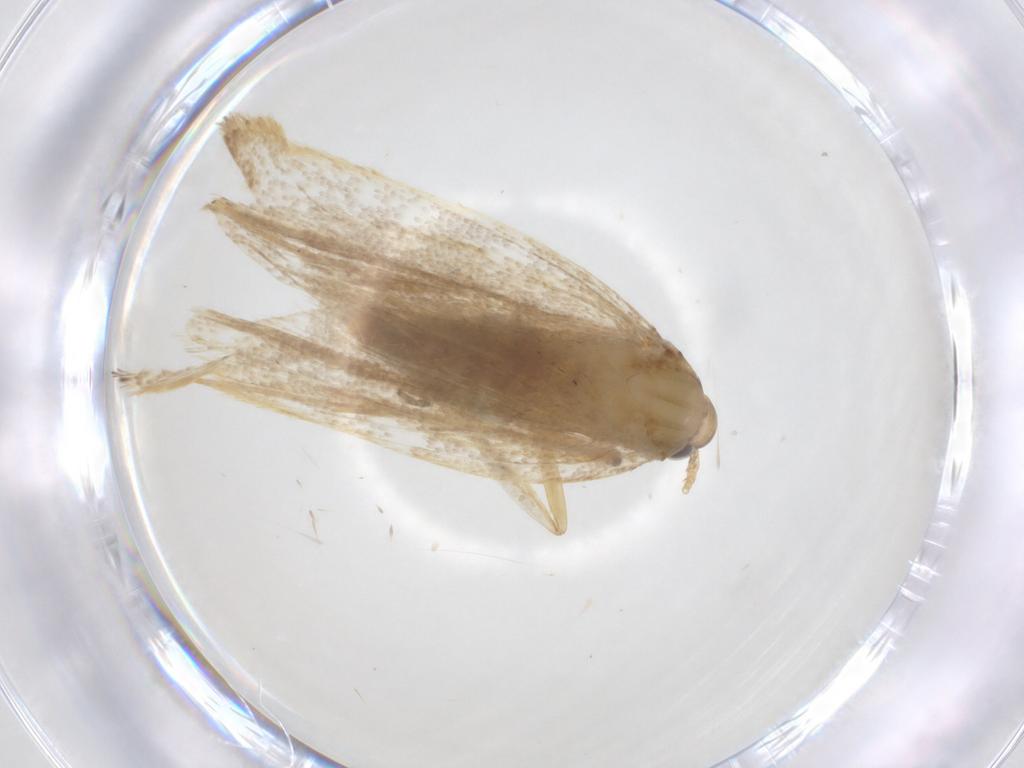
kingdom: Animalia
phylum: Arthropoda
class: Insecta
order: Lepidoptera
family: Lecithoceridae
